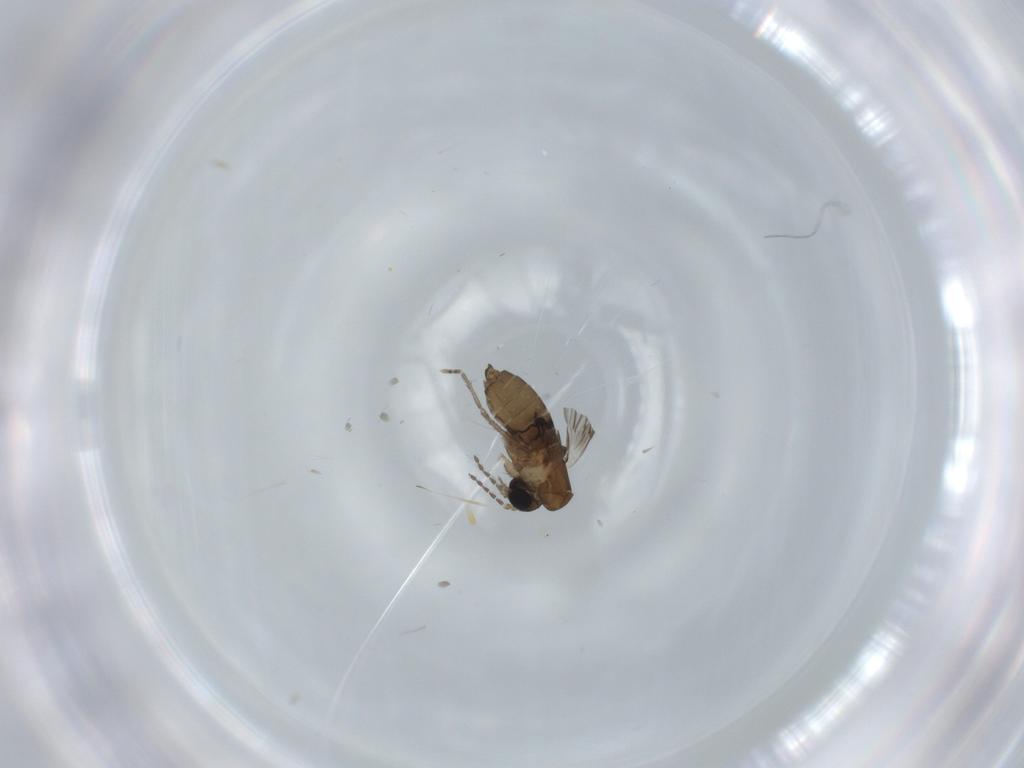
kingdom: Animalia
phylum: Arthropoda
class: Insecta
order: Diptera
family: Psychodidae
